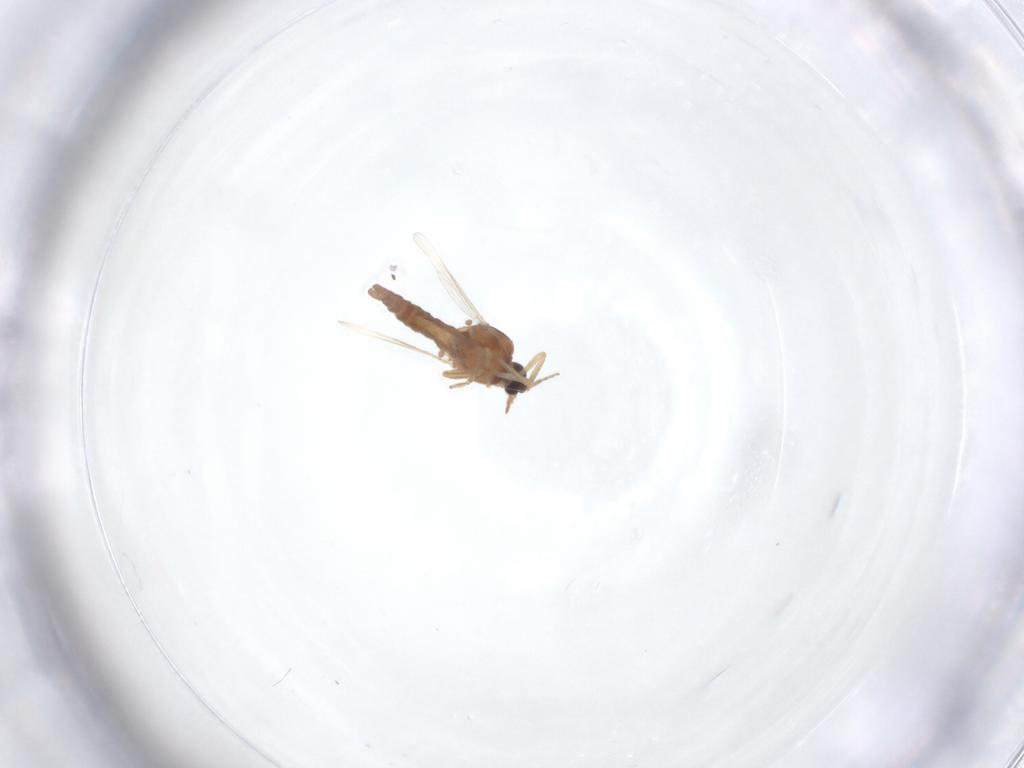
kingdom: Animalia
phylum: Arthropoda
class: Insecta
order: Diptera
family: Ceratopogonidae
